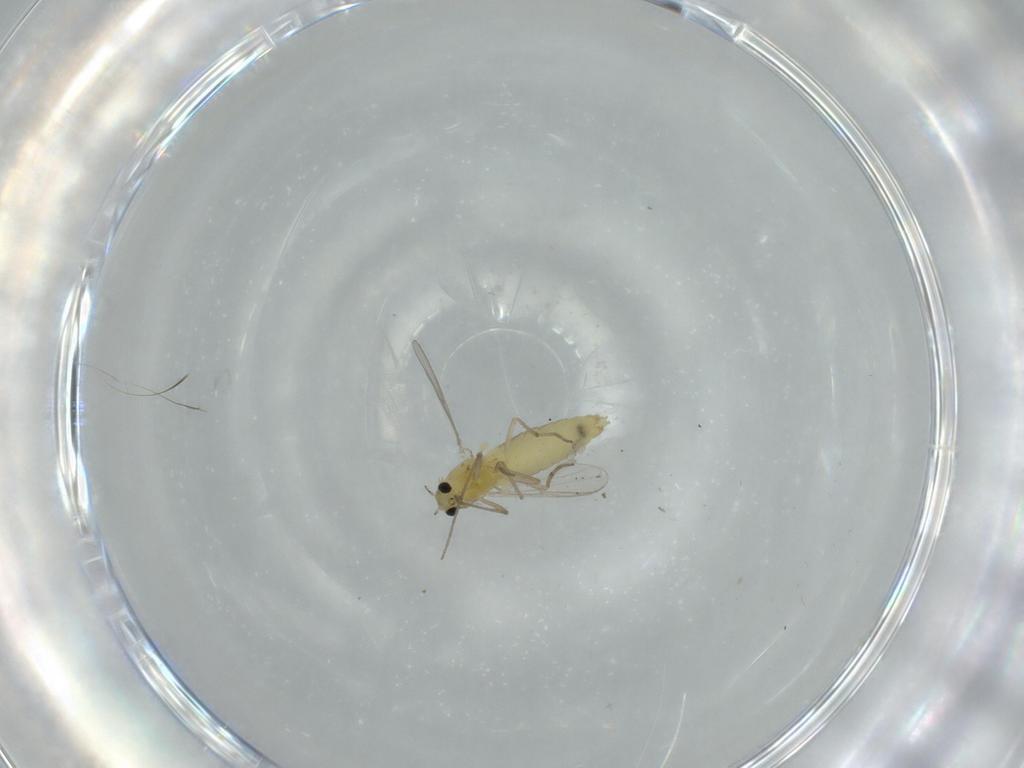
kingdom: Animalia
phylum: Arthropoda
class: Insecta
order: Diptera
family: Chironomidae
